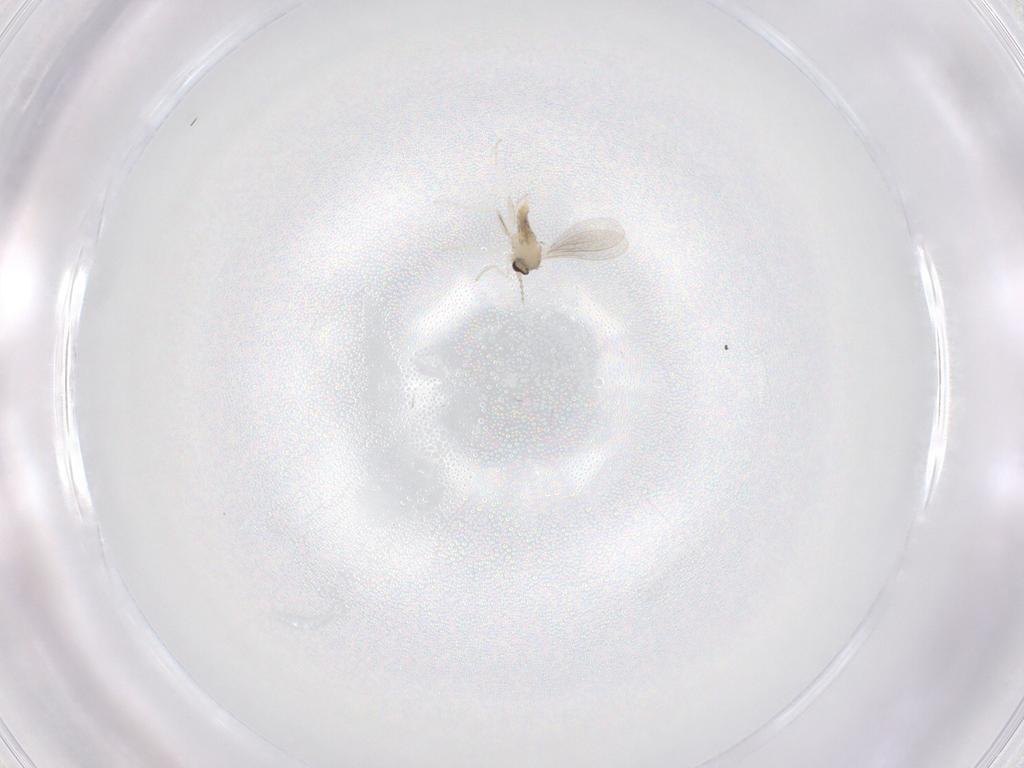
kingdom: Animalia
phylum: Arthropoda
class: Insecta
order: Diptera
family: Cecidomyiidae
